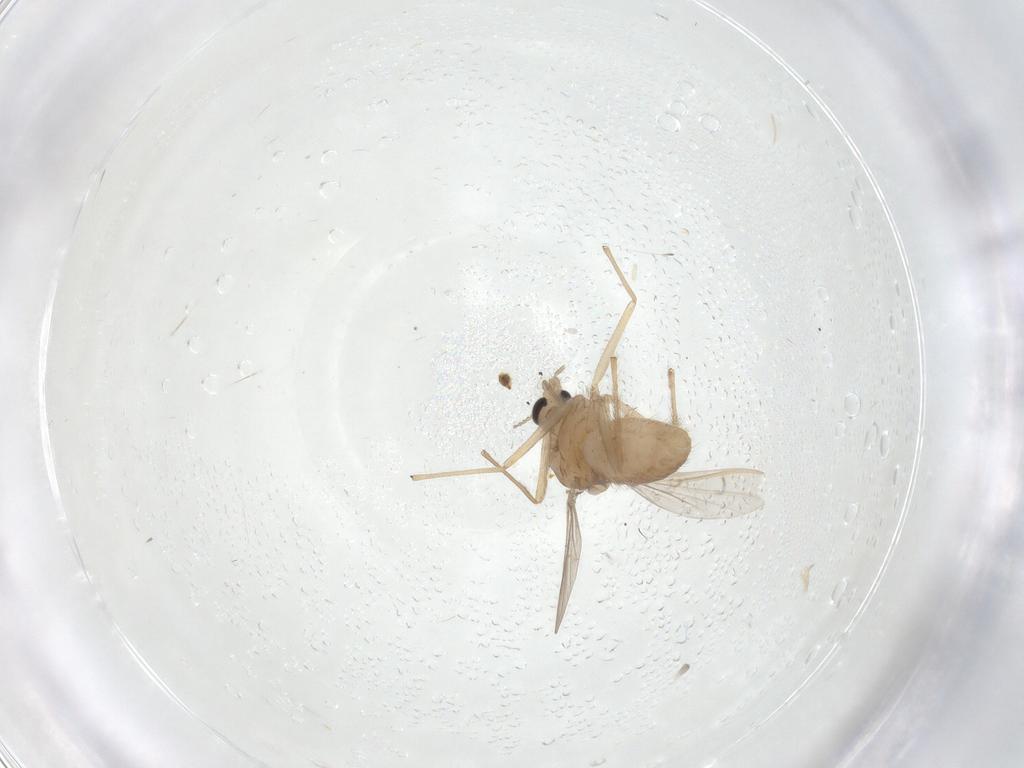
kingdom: Animalia
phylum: Arthropoda
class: Insecta
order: Diptera
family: Chironomidae
